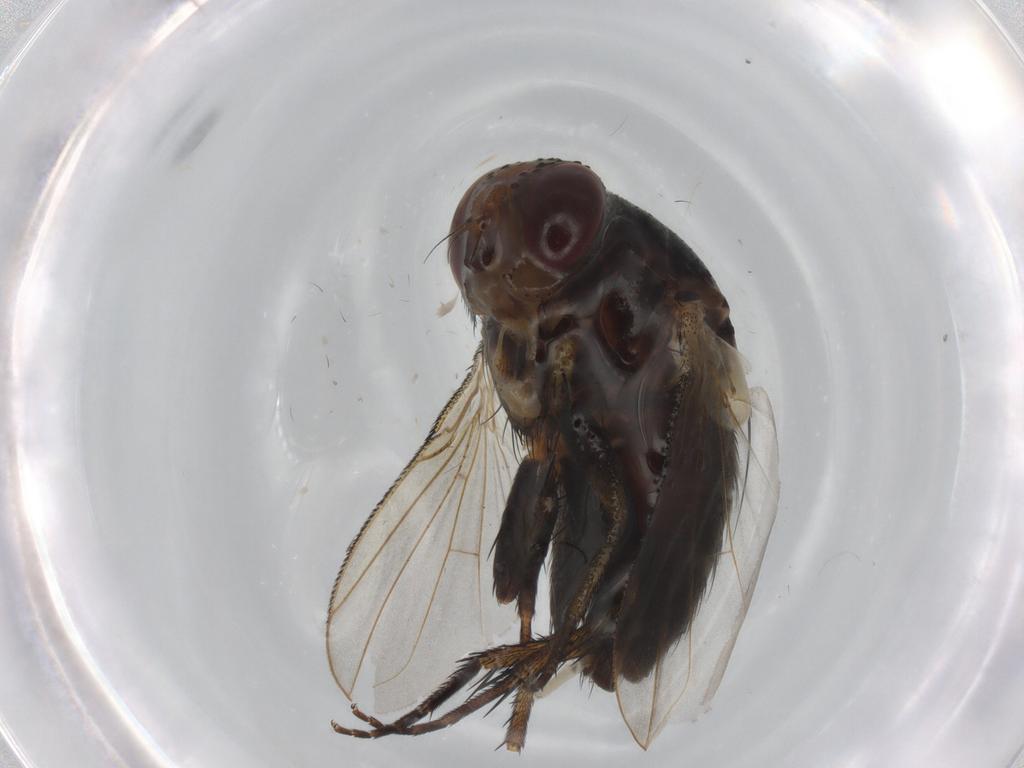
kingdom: Animalia
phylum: Arthropoda
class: Insecta
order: Diptera
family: Tachinidae
